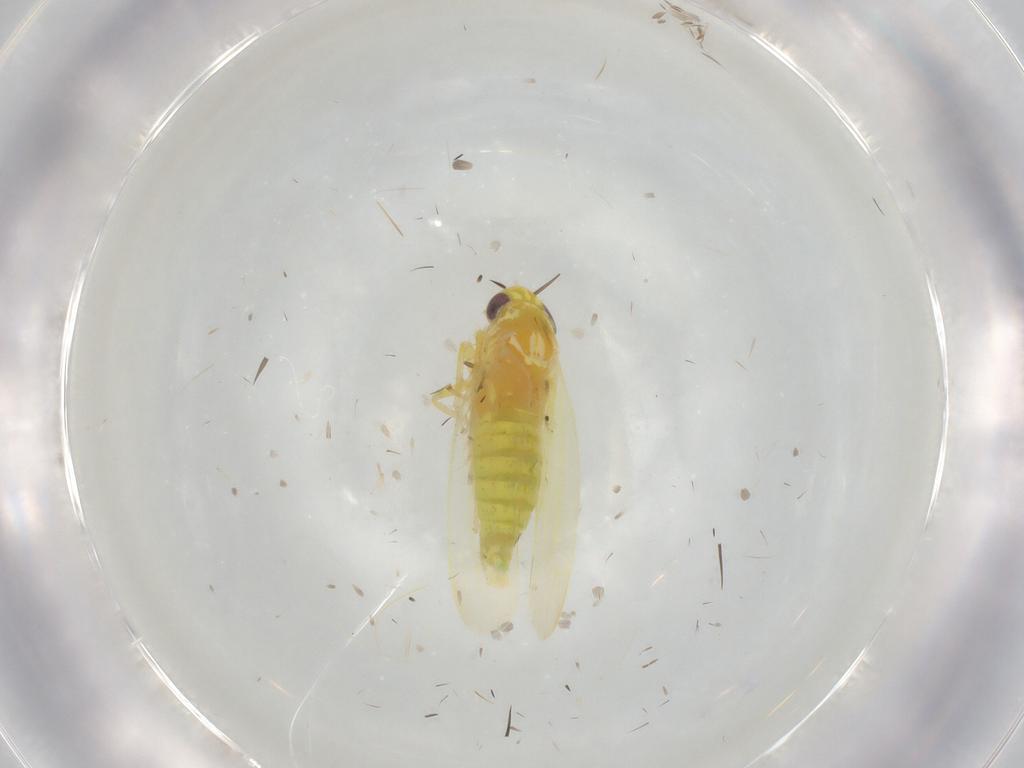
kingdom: Animalia
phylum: Arthropoda
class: Insecta
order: Hemiptera
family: Cicadellidae
